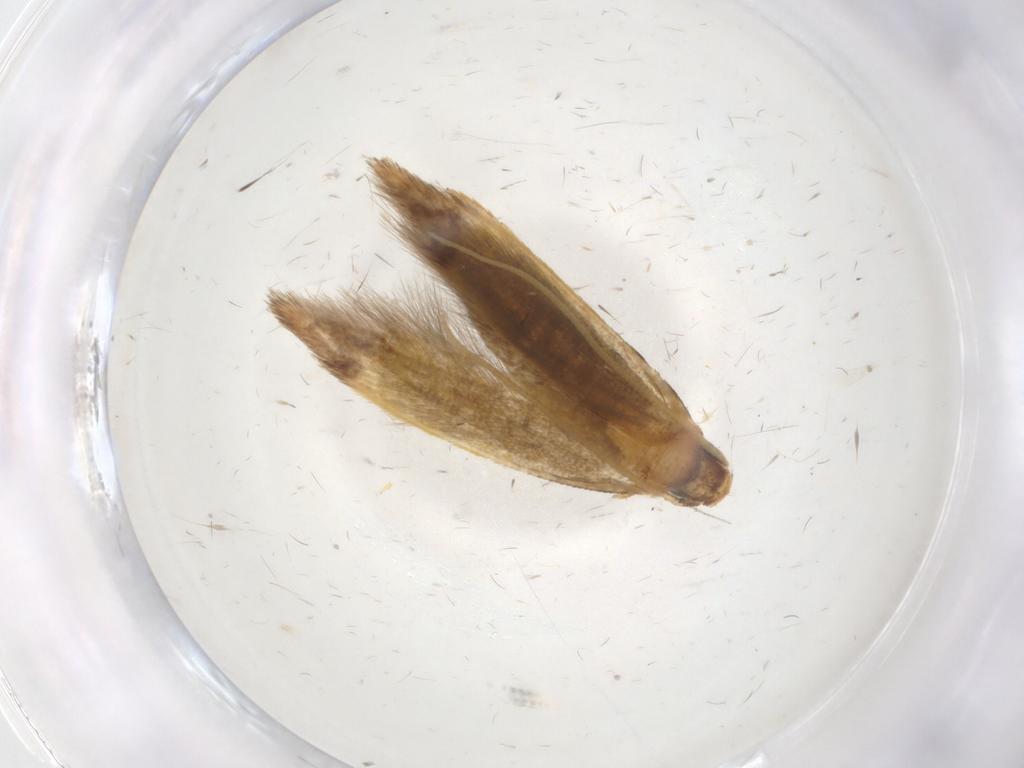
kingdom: Animalia
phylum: Arthropoda
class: Insecta
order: Lepidoptera
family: Tineidae
